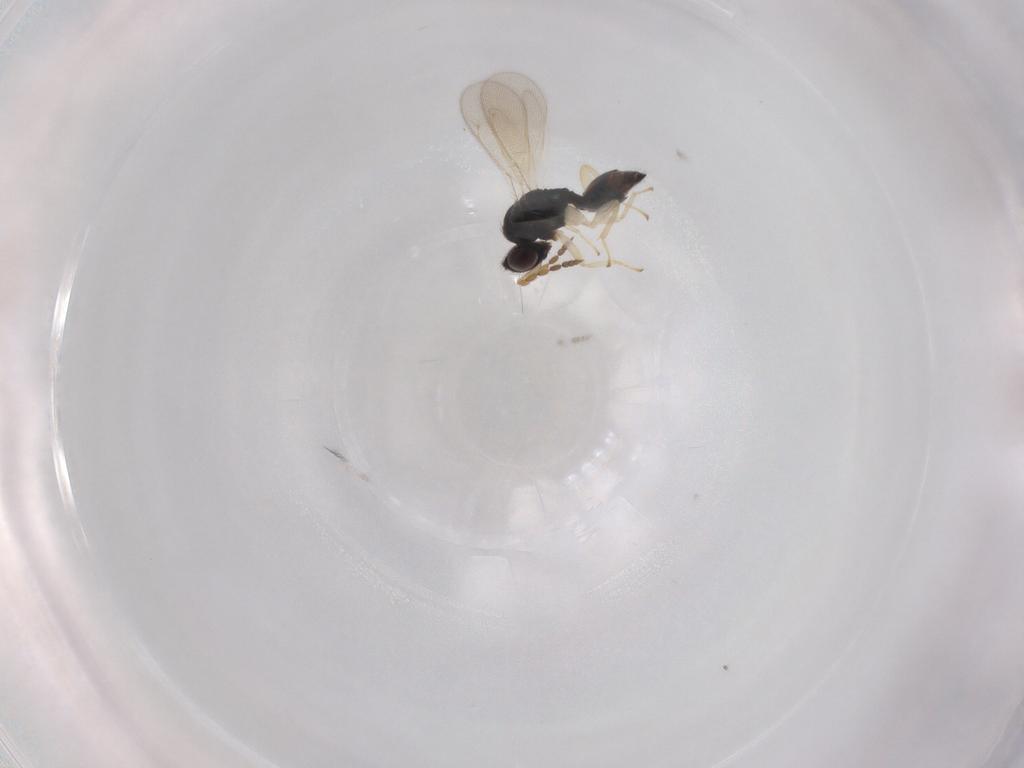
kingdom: Animalia
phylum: Arthropoda
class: Insecta
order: Hymenoptera
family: Eulophidae
